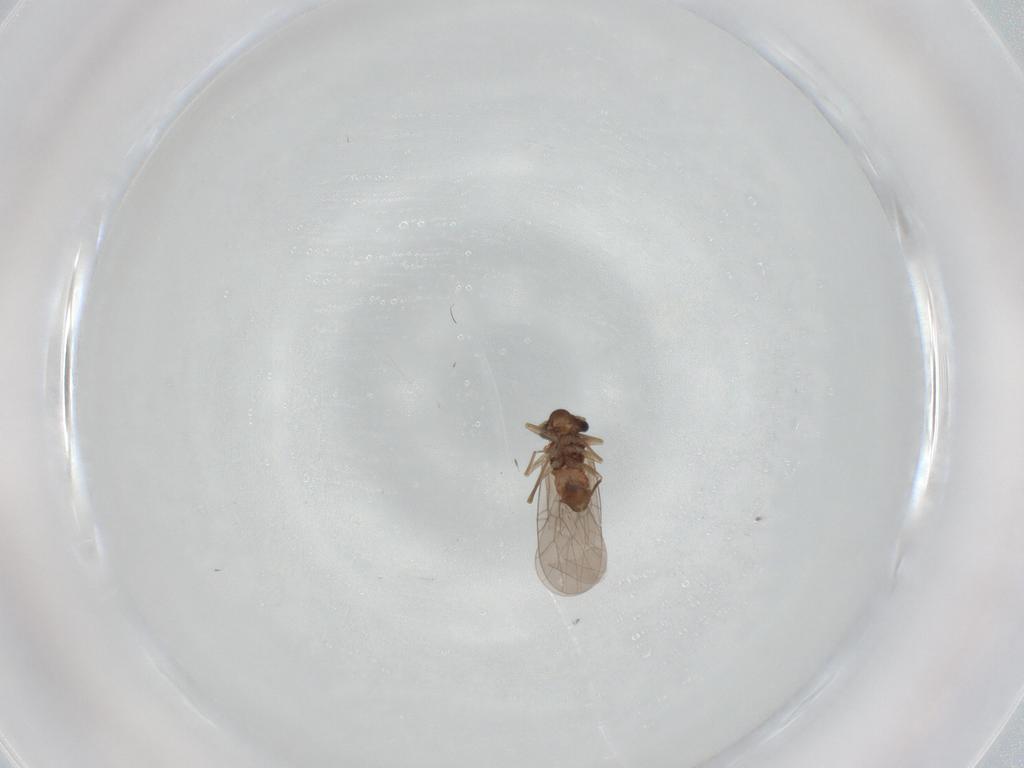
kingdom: Animalia
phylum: Arthropoda
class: Insecta
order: Psocodea
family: Lepidopsocidae
